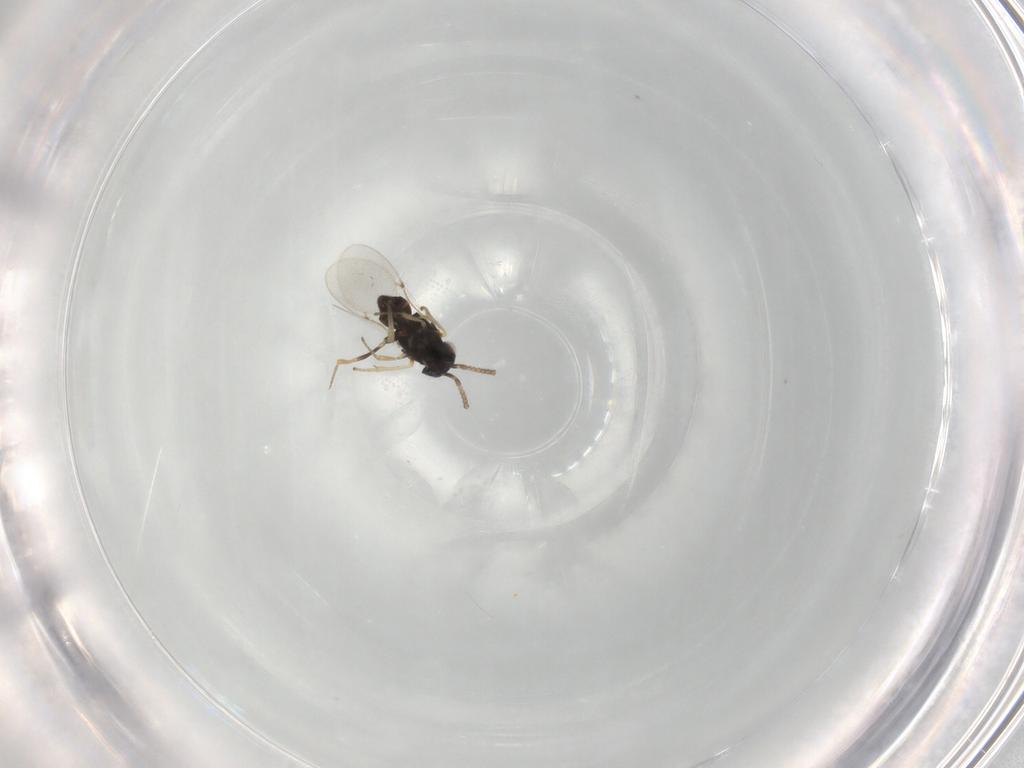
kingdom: Animalia
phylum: Arthropoda
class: Insecta
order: Hymenoptera
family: Encyrtidae
